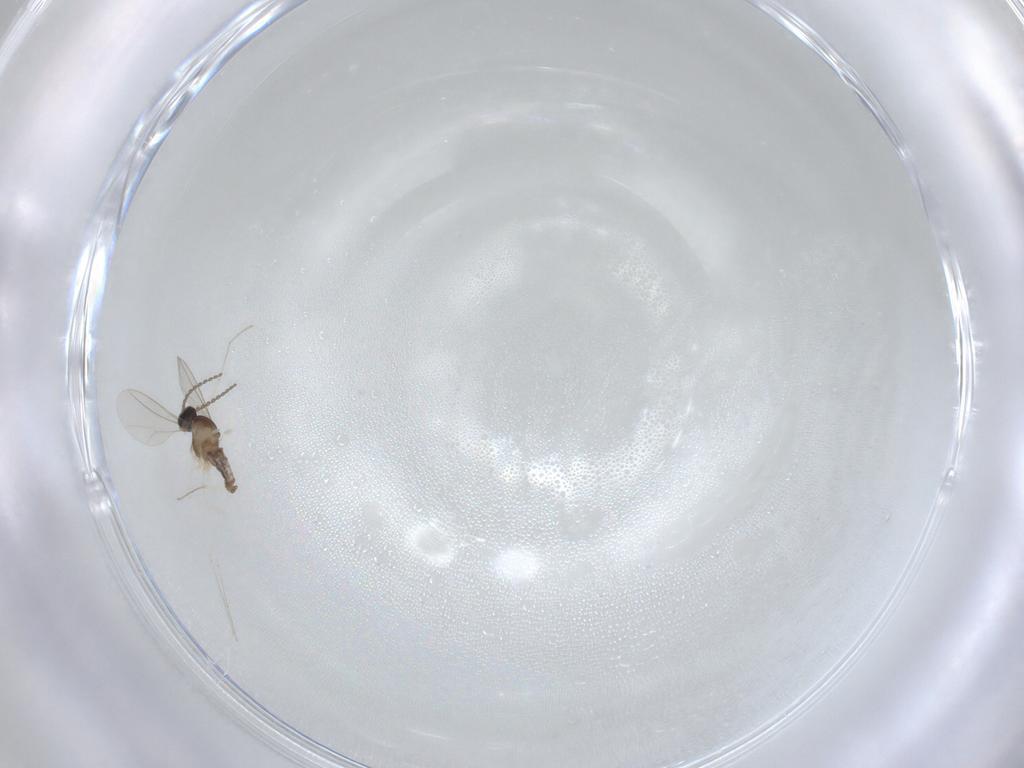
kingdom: Animalia
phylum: Arthropoda
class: Insecta
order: Diptera
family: Cecidomyiidae
